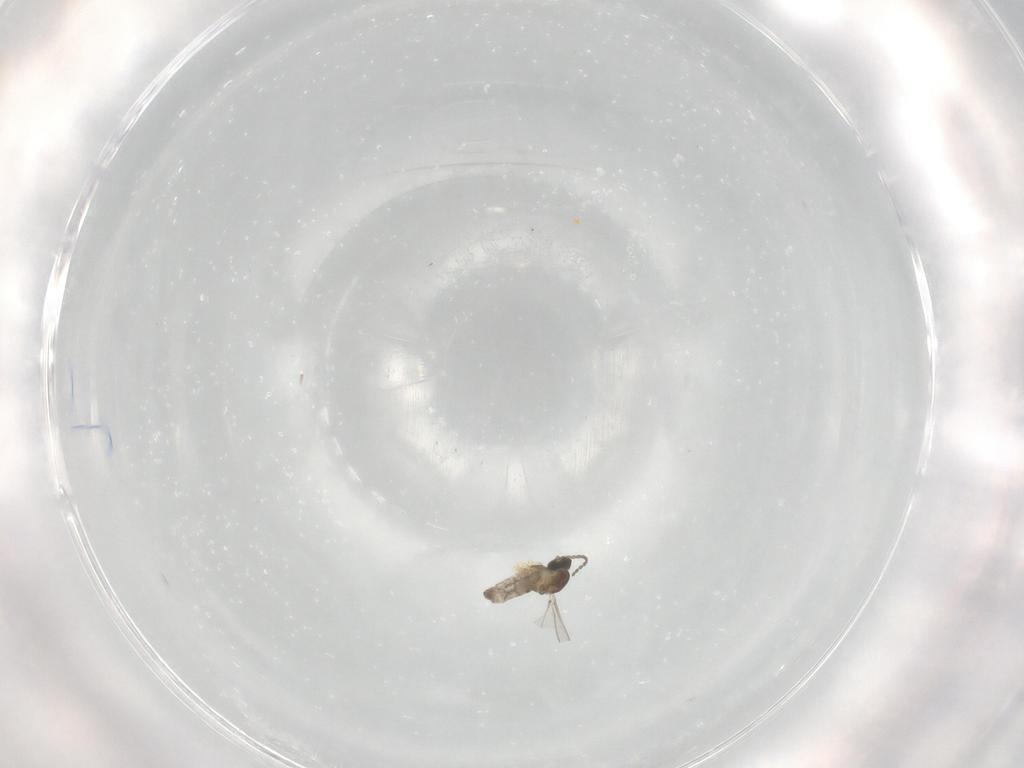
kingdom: Animalia
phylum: Arthropoda
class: Insecta
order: Diptera
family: Cecidomyiidae
